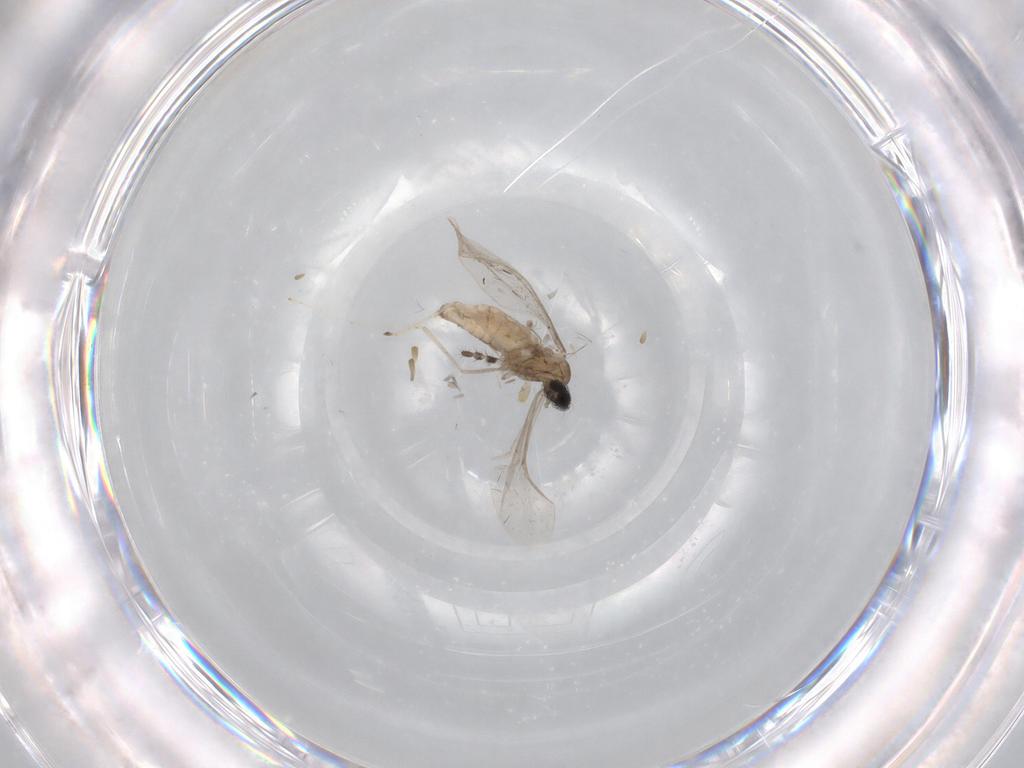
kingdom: Animalia
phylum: Arthropoda
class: Insecta
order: Diptera
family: Cecidomyiidae
